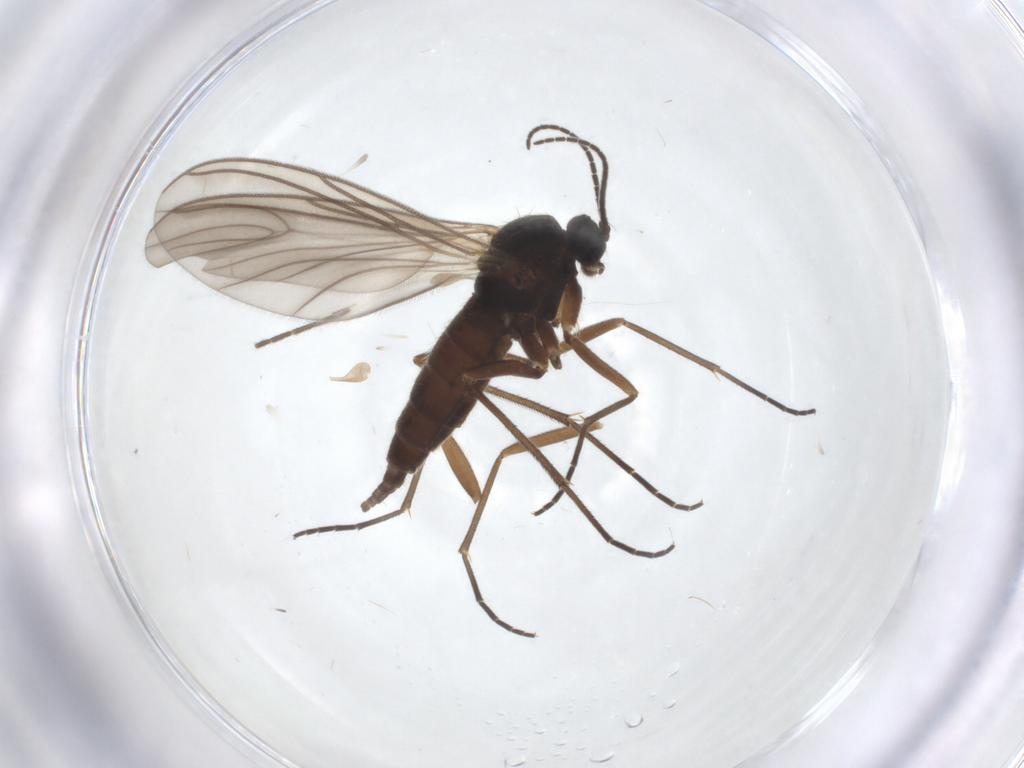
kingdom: Animalia
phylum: Arthropoda
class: Insecta
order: Diptera
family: Sciaridae
